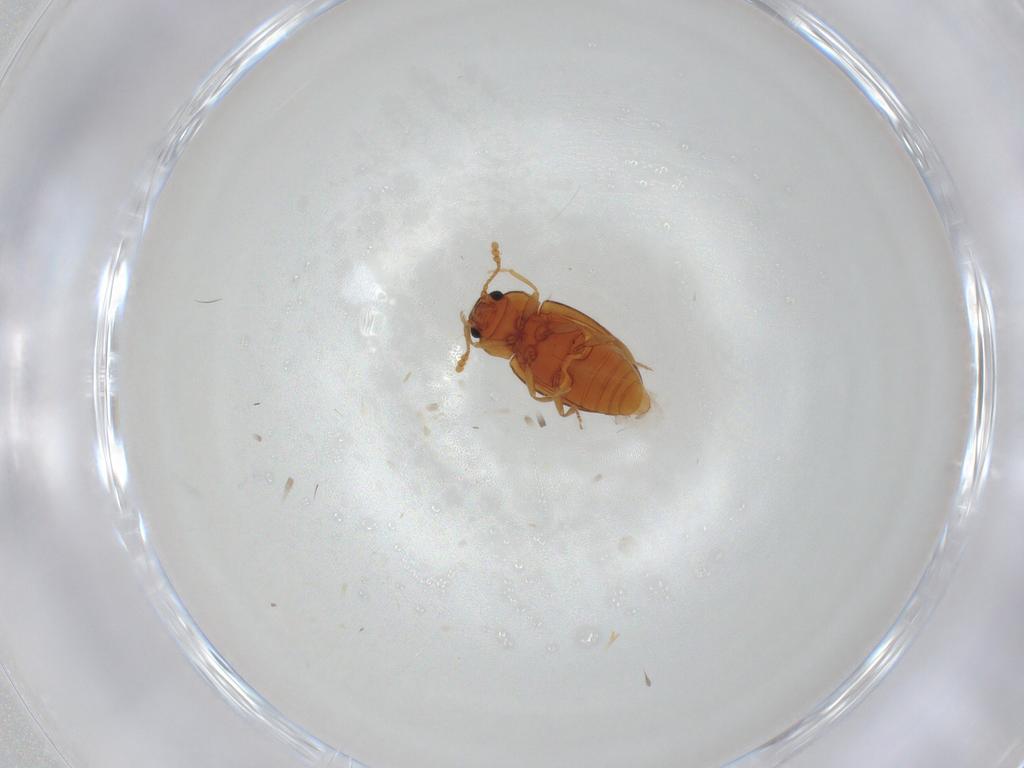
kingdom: Animalia
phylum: Arthropoda
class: Insecta
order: Coleoptera
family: Erotylidae
